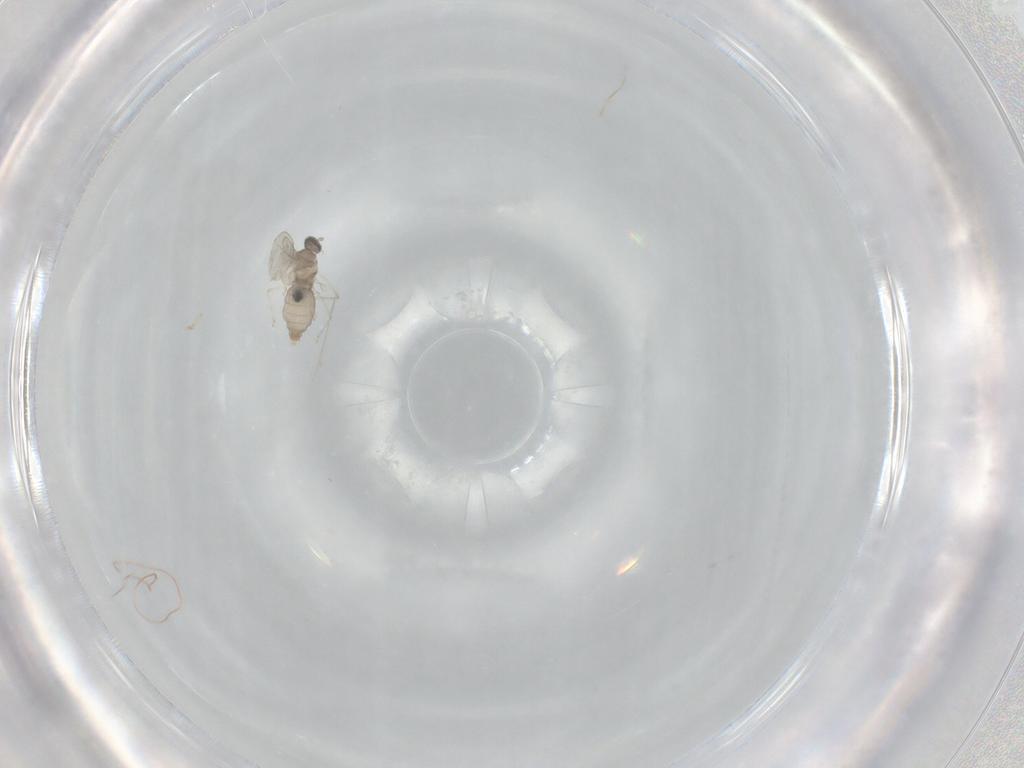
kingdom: Animalia
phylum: Arthropoda
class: Insecta
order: Diptera
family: Cecidomyiidae
